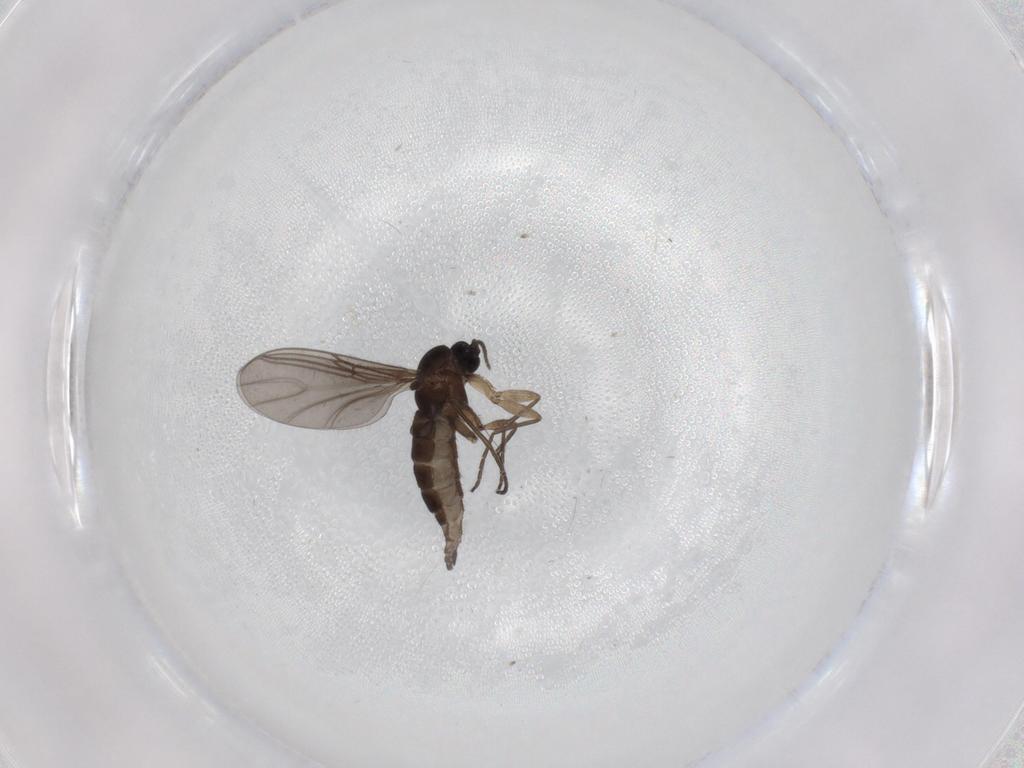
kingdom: Animalia
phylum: Arthropoda
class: Insecta
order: Diptera
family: Sciaridae
